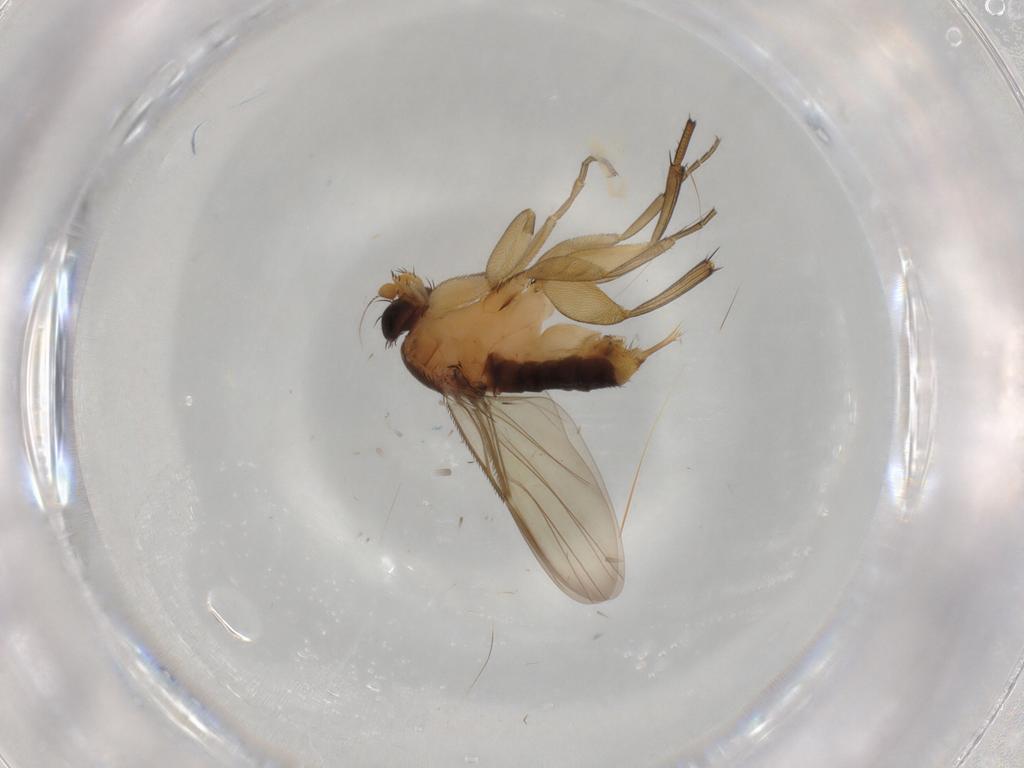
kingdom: Animalia
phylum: Arthropoda
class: Insecta
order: Diptera
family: Phoridae
